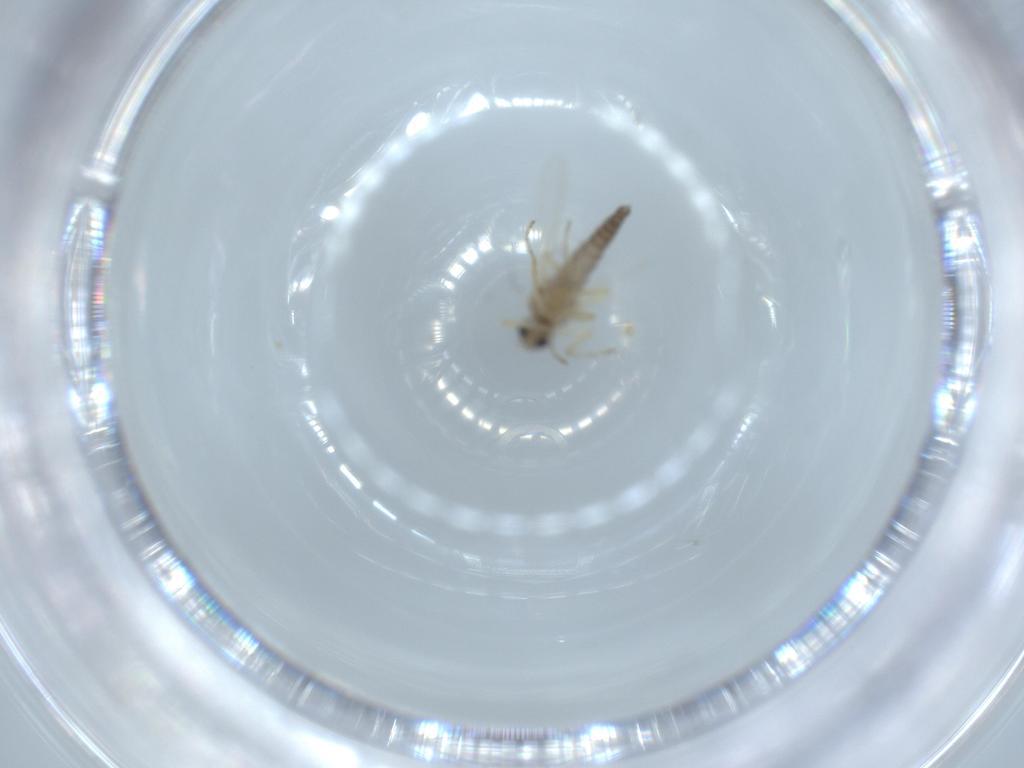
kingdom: Animalia
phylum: Arthropoda
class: Insecta
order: Diptera
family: Ceratopogonidae
